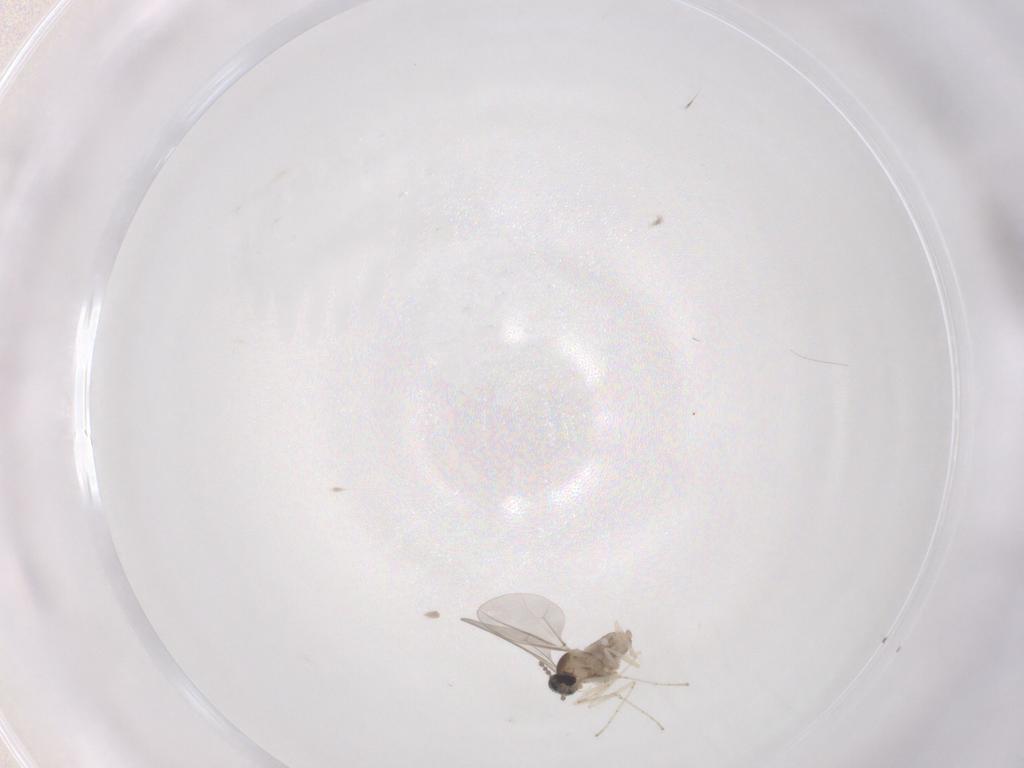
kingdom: Animalia
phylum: Arthropoda
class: Insecta
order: Diptera
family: Cecidomyiidae
